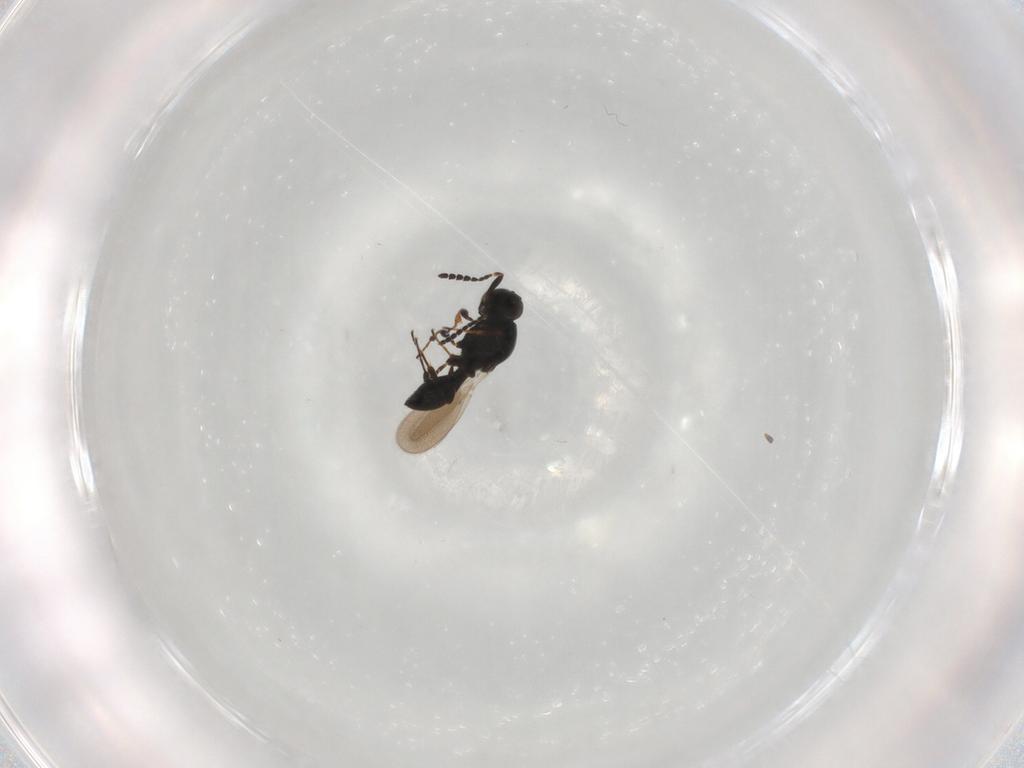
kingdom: Animalia
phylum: Arthropoda
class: Insecta
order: Hymenoptera
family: Platygastridae
